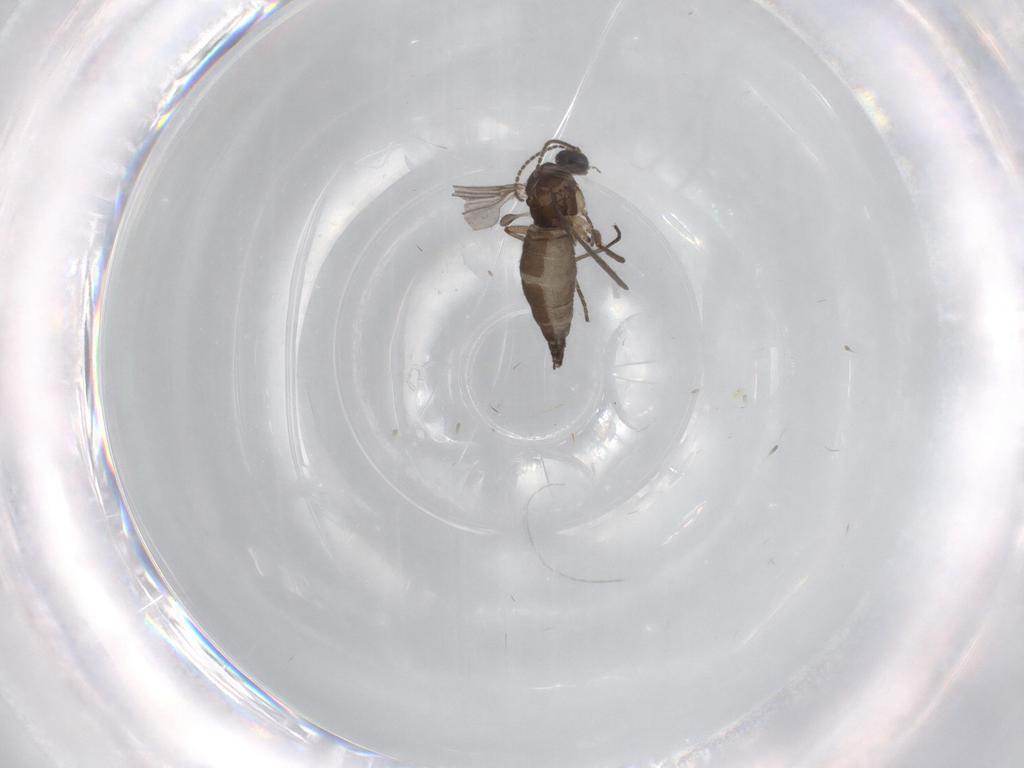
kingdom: Animalia
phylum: Arthropoda
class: Insecta
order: Diptera
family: Sciaridae
